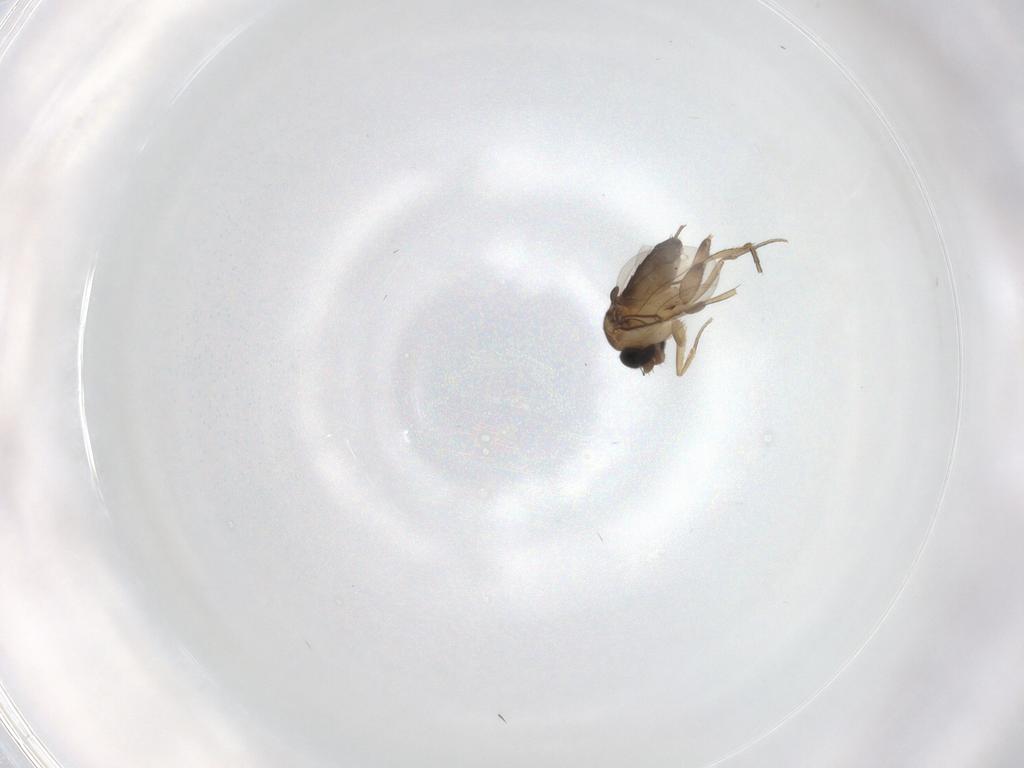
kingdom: Animalia
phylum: Arthropoda
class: Insecta
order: Diptera
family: Phoridae
